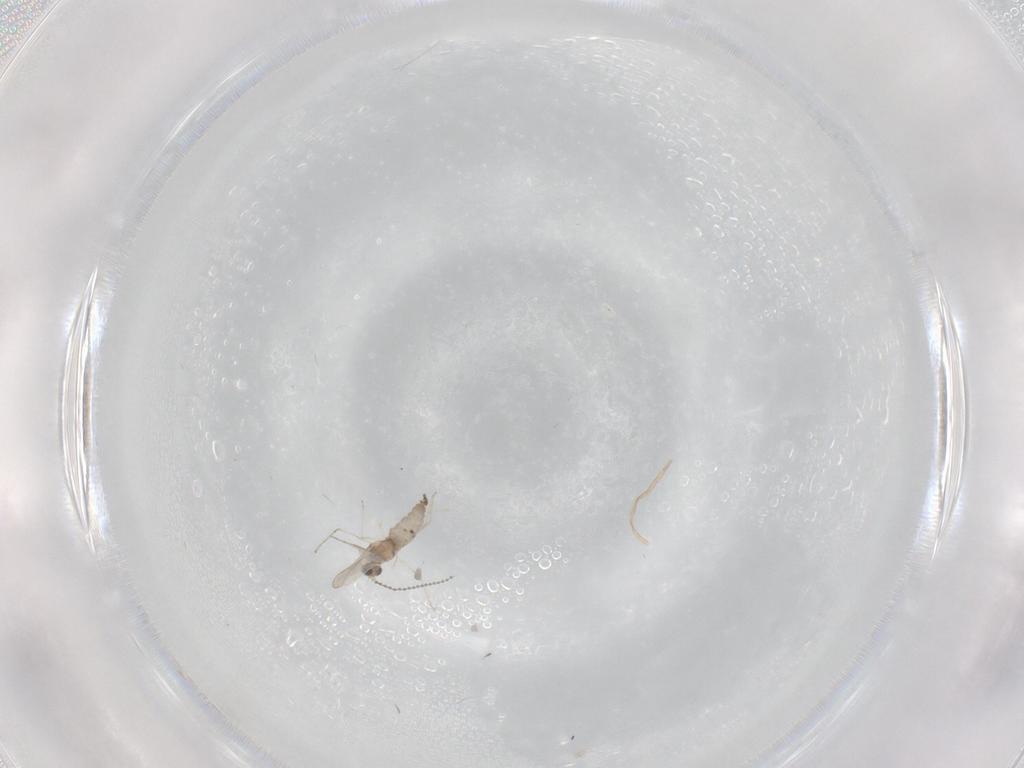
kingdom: Animalia
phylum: Arthropoda
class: Insecta
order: Diptera
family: Cecidomyiidae
